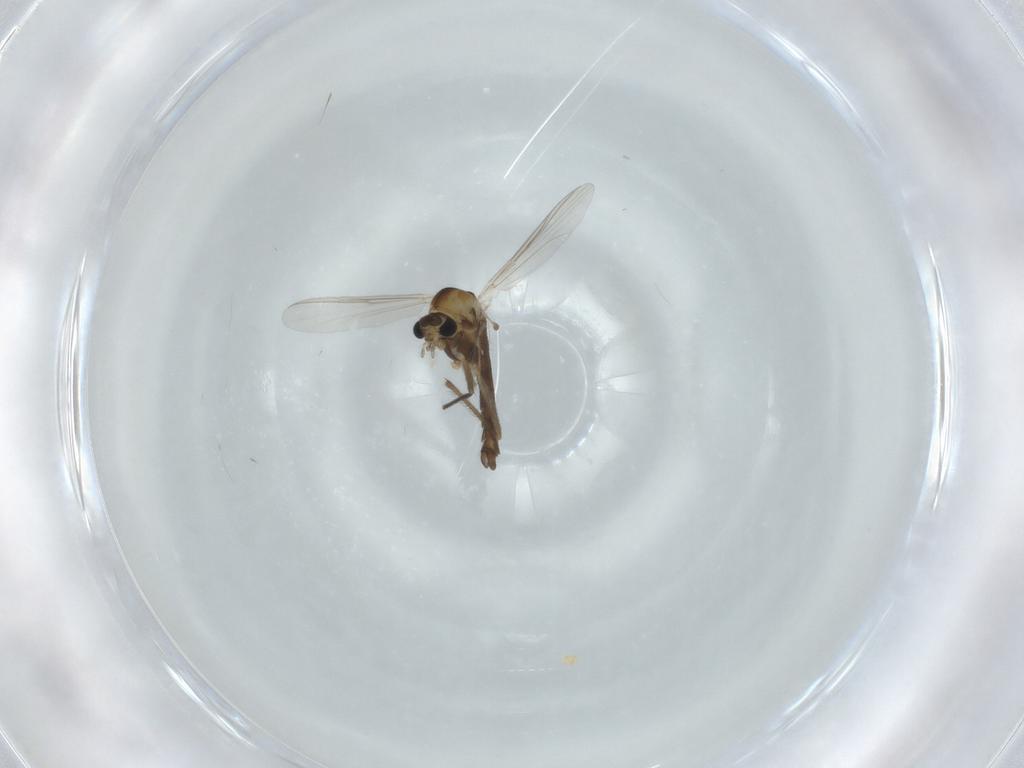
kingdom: Animalia
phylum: Arthropoda
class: Insecta
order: Diptera
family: Chironomidae
